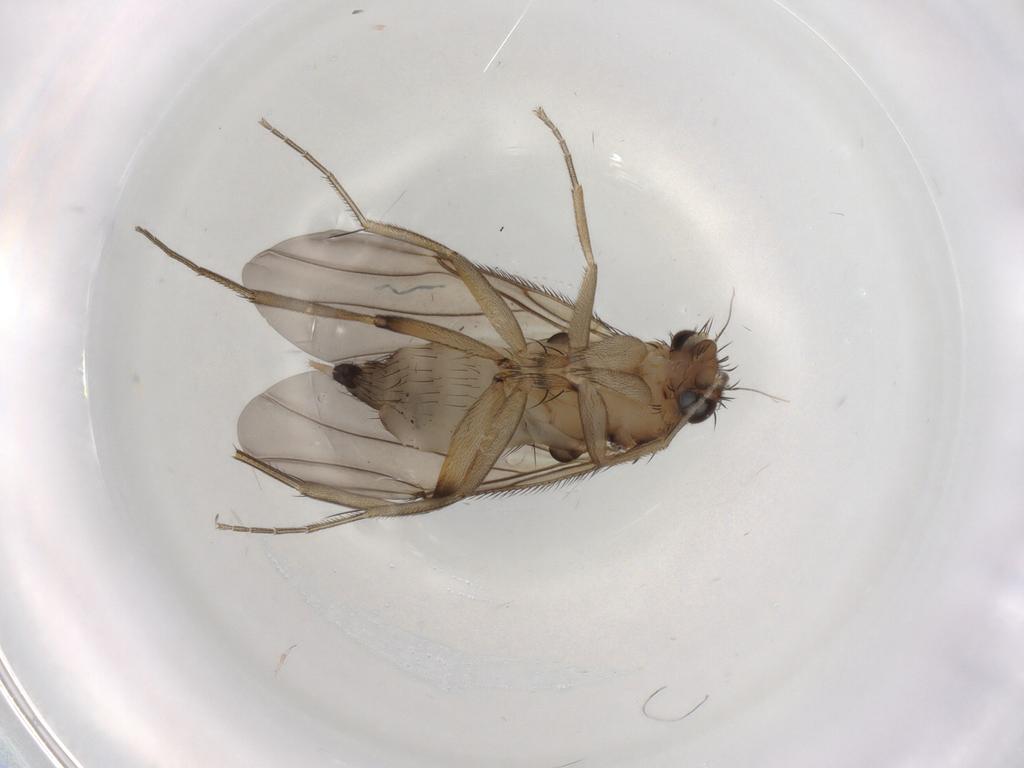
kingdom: Animalia
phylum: Arthropoda
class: Insecta
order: Diptera
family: Phoridae
